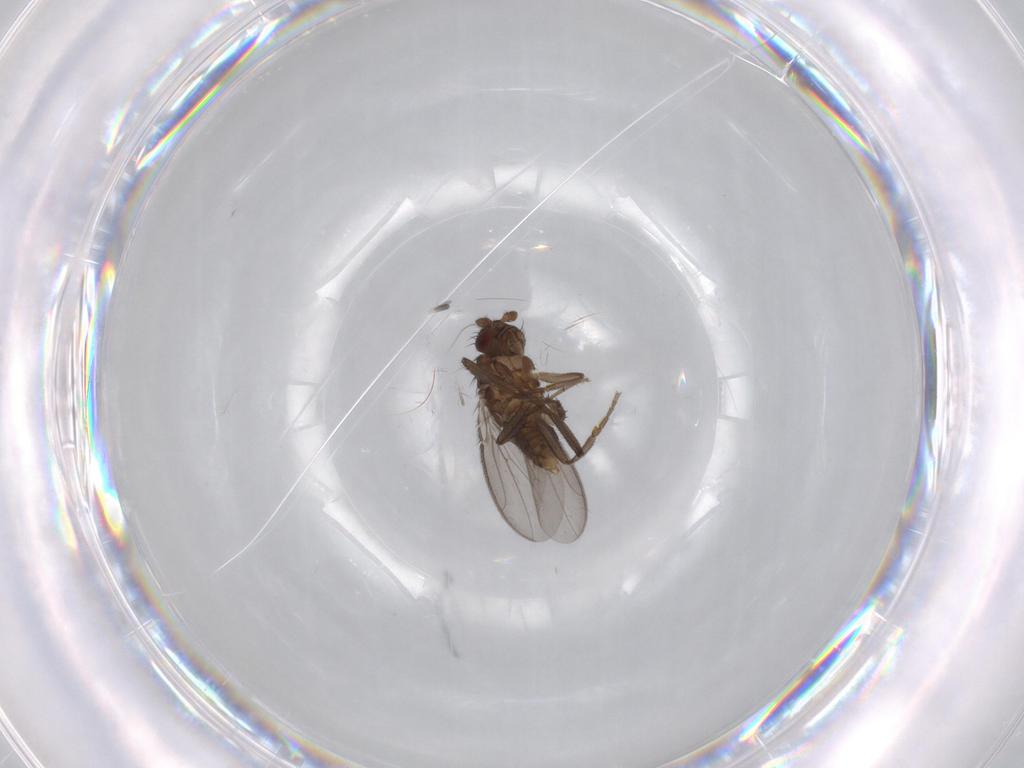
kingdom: Animalia
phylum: Arthropoda
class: Insecta
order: Diptera
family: Sphaeroceridae
